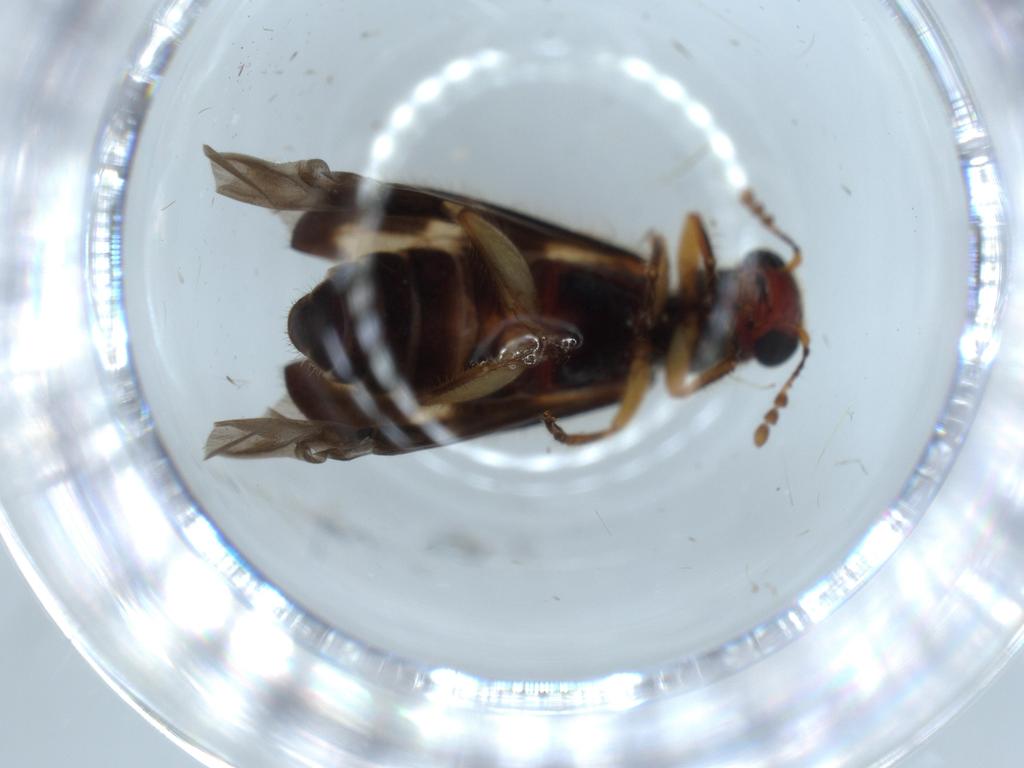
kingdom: Animalia
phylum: Arthropoda
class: Insecta
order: Coleoptera
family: Cleridae
